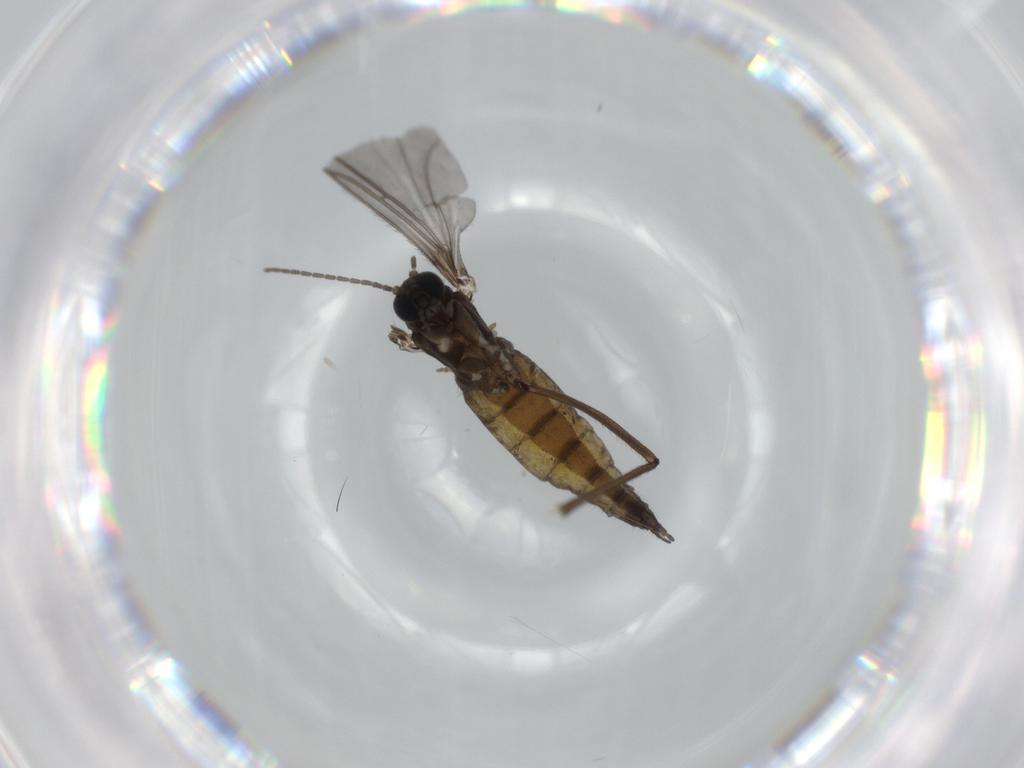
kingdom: Animalia
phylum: Arthropoda
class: Insecta
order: Diptera
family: Sciaridae
